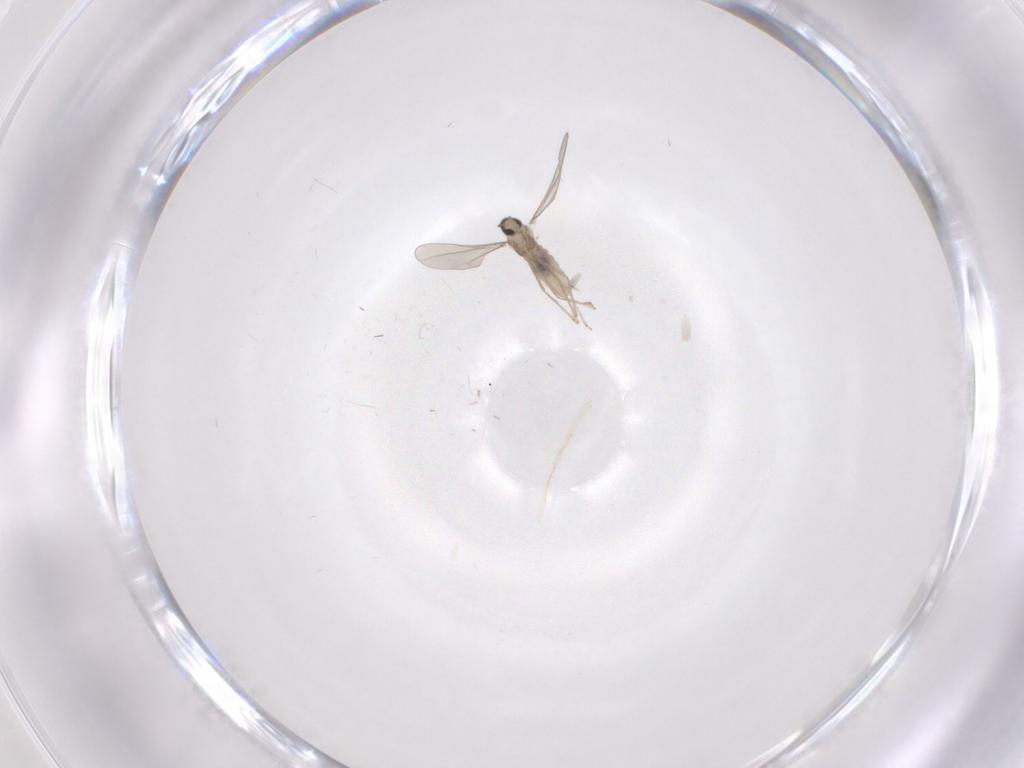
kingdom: Animalia
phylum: Arthropoda
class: Insecta
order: Diptera
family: Cecidomyiidae
